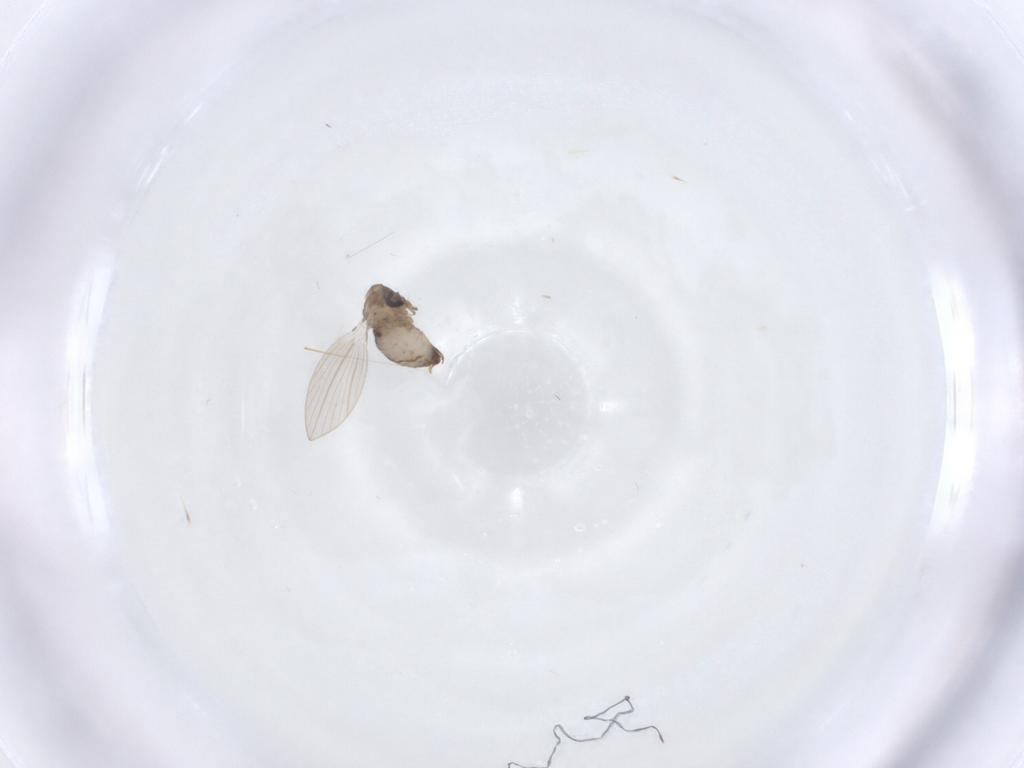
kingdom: Animalia
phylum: Arthropoda
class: Insecta
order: Diptera
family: Psychodidae
